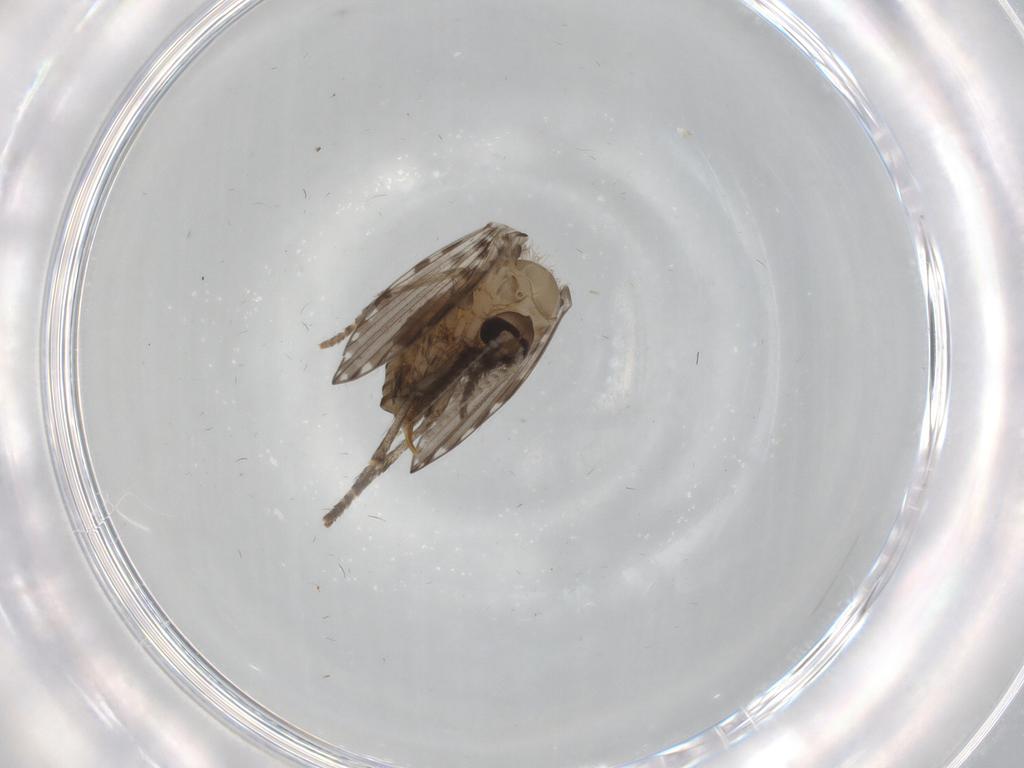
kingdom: Animalia
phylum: Arthropoda
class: Insecta
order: Diptera
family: Psychodidae
